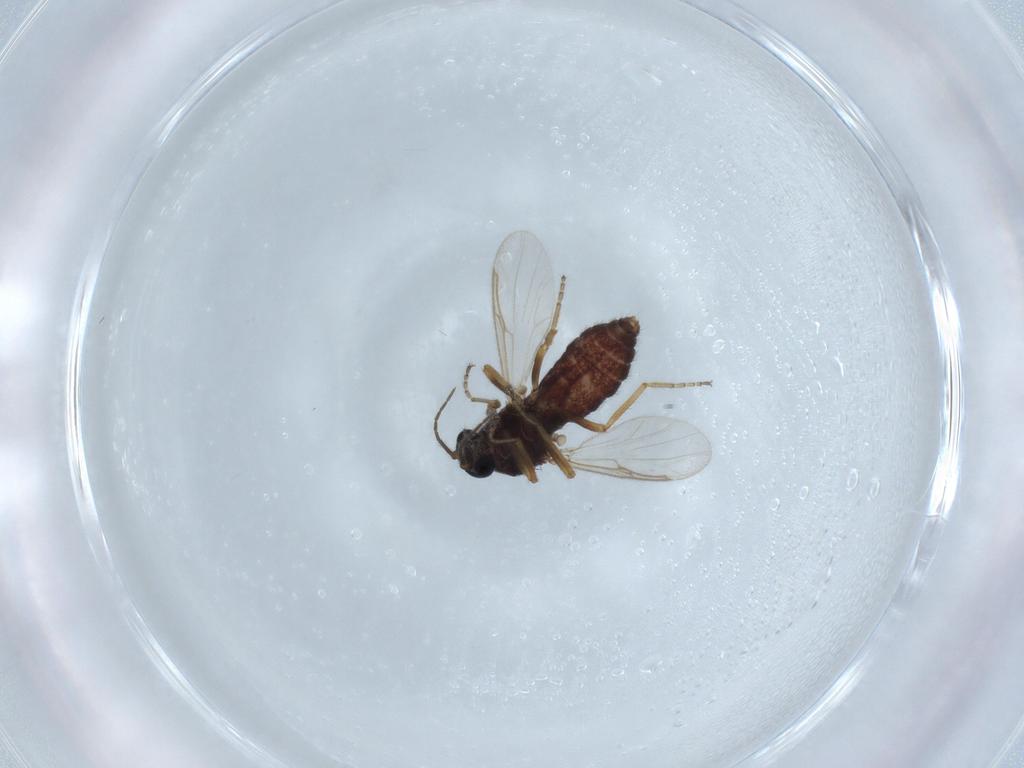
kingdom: Animalia
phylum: Arthropoda
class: Insecta
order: Diptera
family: Ceratopogonidae
